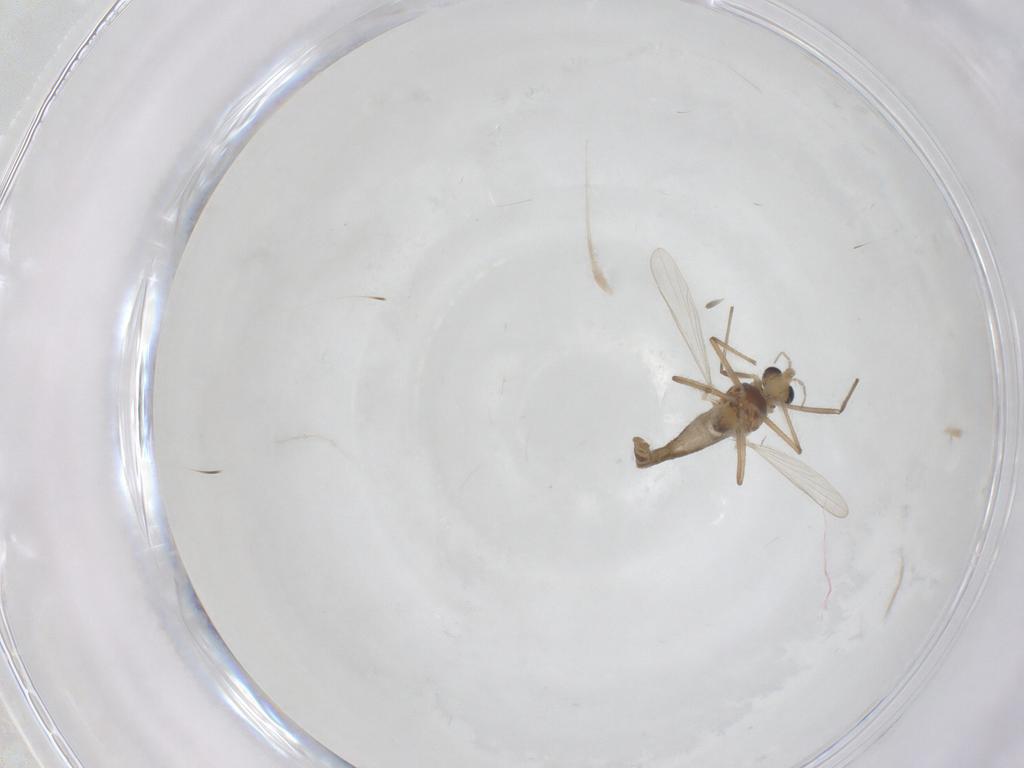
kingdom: Animalia
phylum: Arthropoda
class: Insecta
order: Diptera
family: Chironomidae
